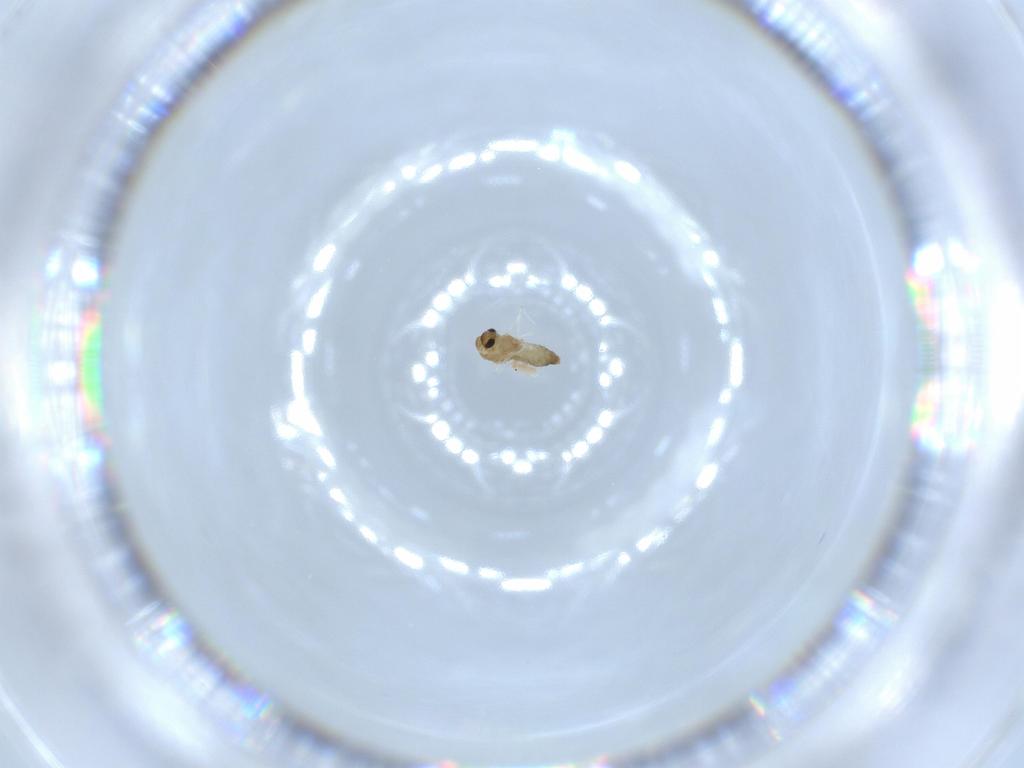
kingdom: Animalia
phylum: Arthropoda
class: Insecta
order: Diptera
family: Chironomidae
